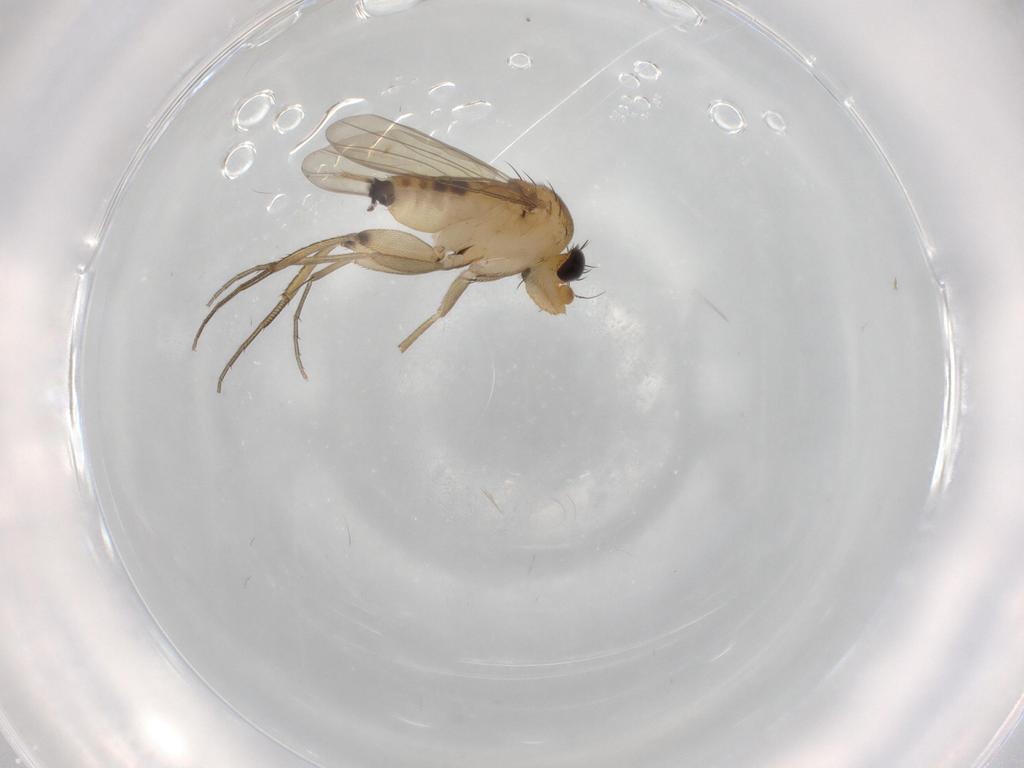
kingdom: Animalia
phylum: Arthropoda
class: Insecta
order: Diptera
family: Phoridae
